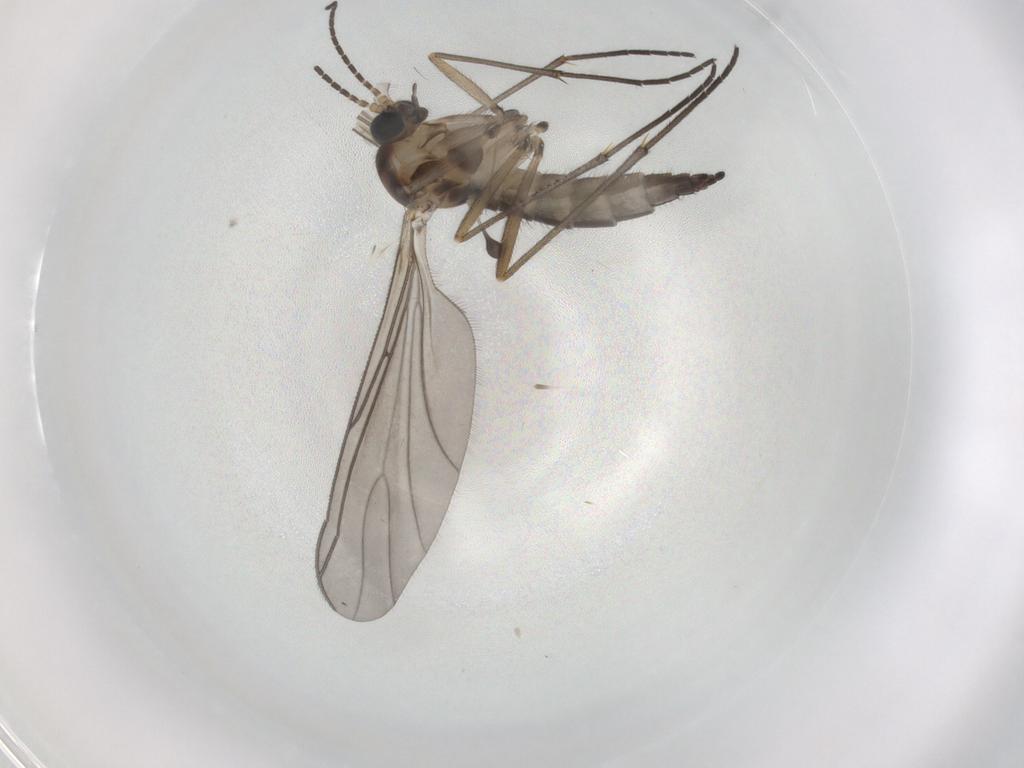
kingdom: Animalia
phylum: Arthropoda
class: Insecta
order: Diptera
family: Sciaridae
